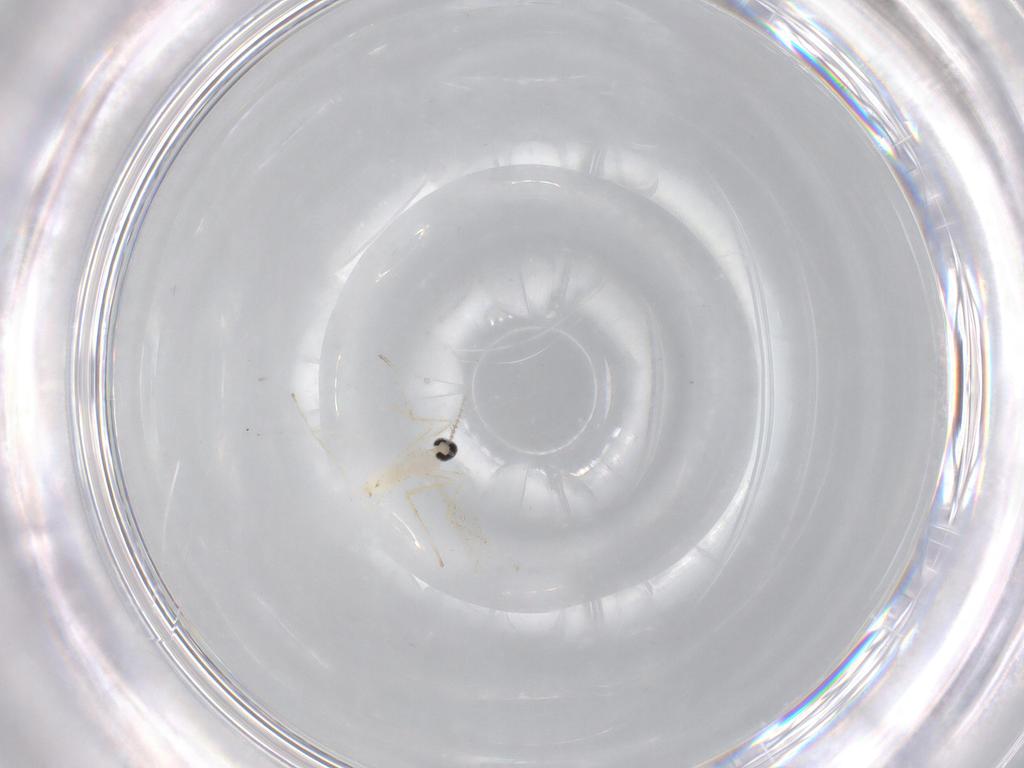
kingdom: Animalia
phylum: Arthropoda
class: Insecta
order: Diptera
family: Cecidomyiidae
